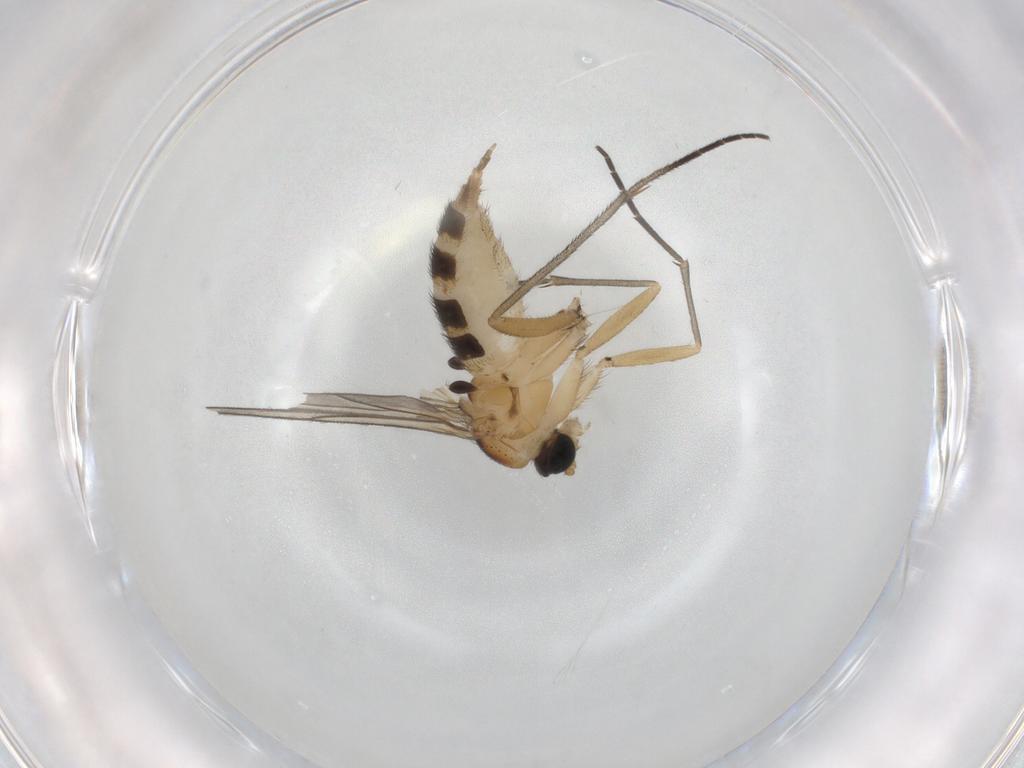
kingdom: Animalia
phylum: Arthropoda
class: Insecta
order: Diptera
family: Sciaridae
